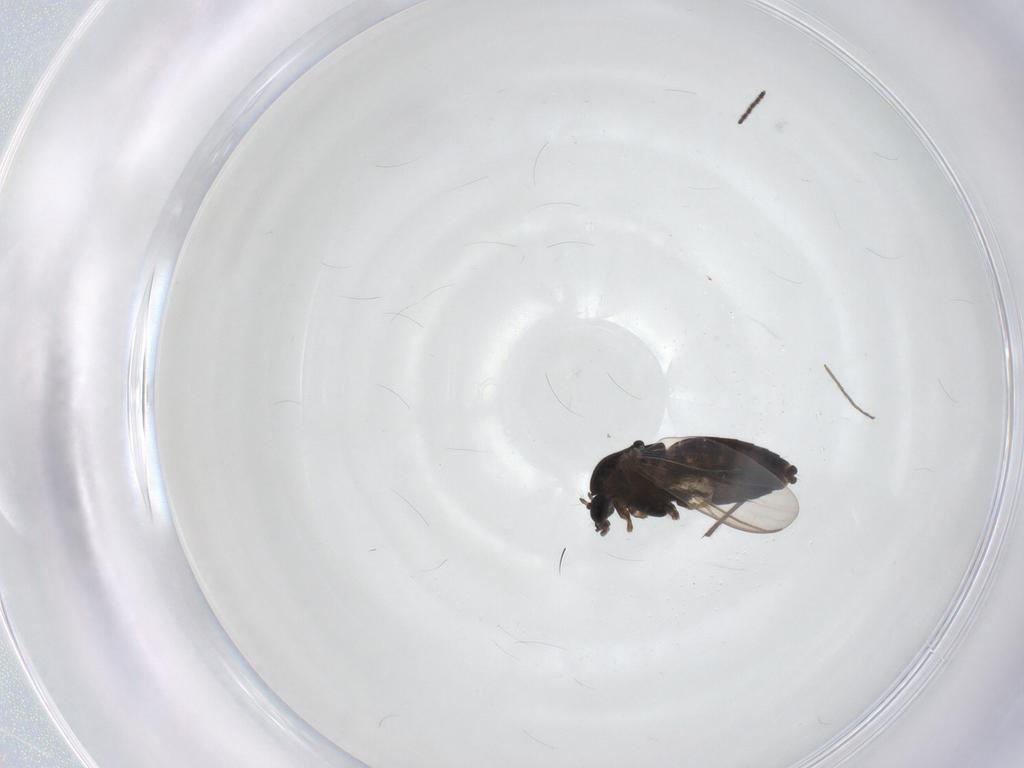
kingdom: Animalia
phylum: Arthropoda
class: Insecta
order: Diptera
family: Chironomidae
